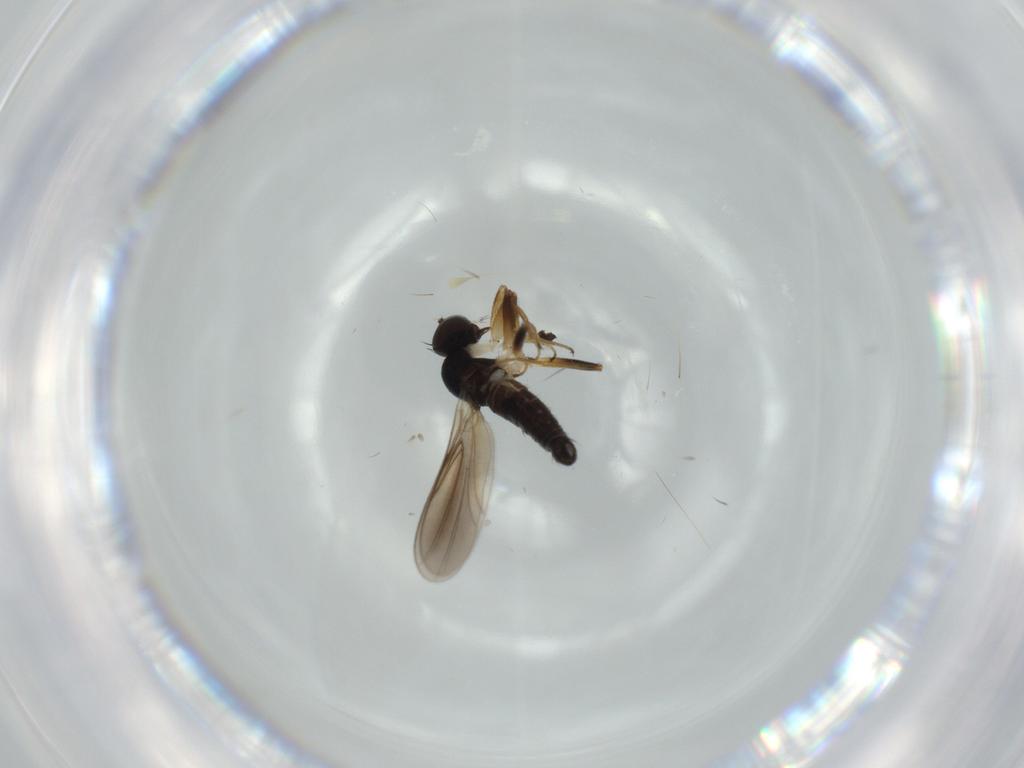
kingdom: Animalia
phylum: Arthropoda
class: Insecta
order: Diptera
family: Hybotidae
